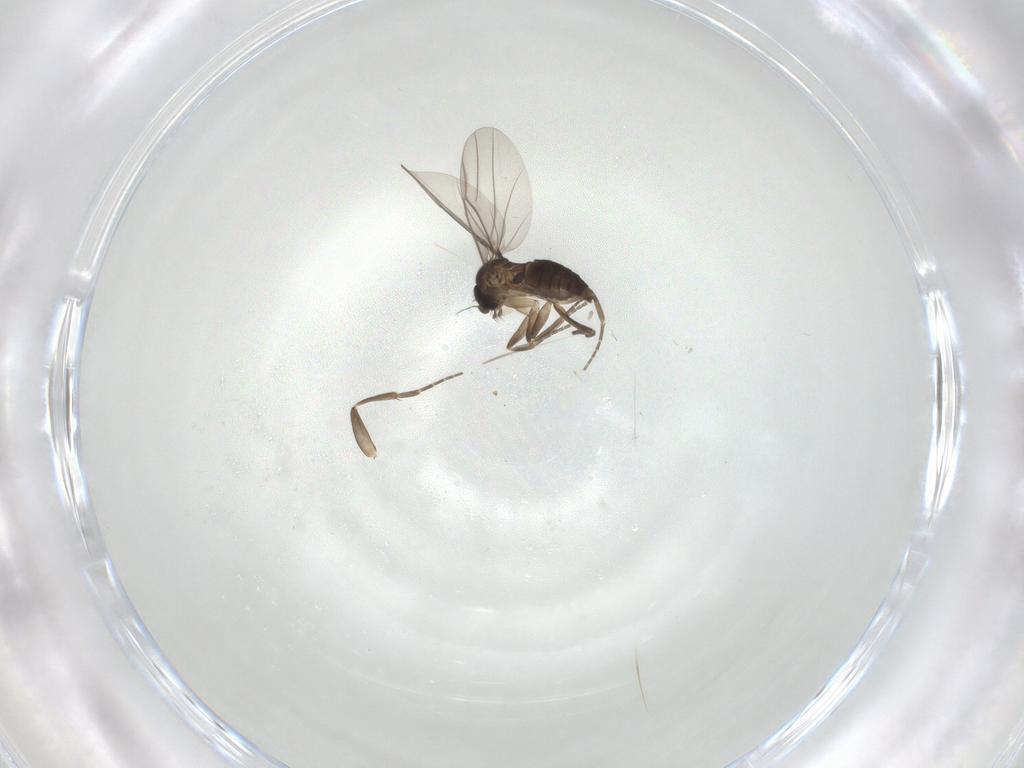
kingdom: Animalia
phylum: Arthropoda
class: Insecta
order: Diptera
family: Phoridae
